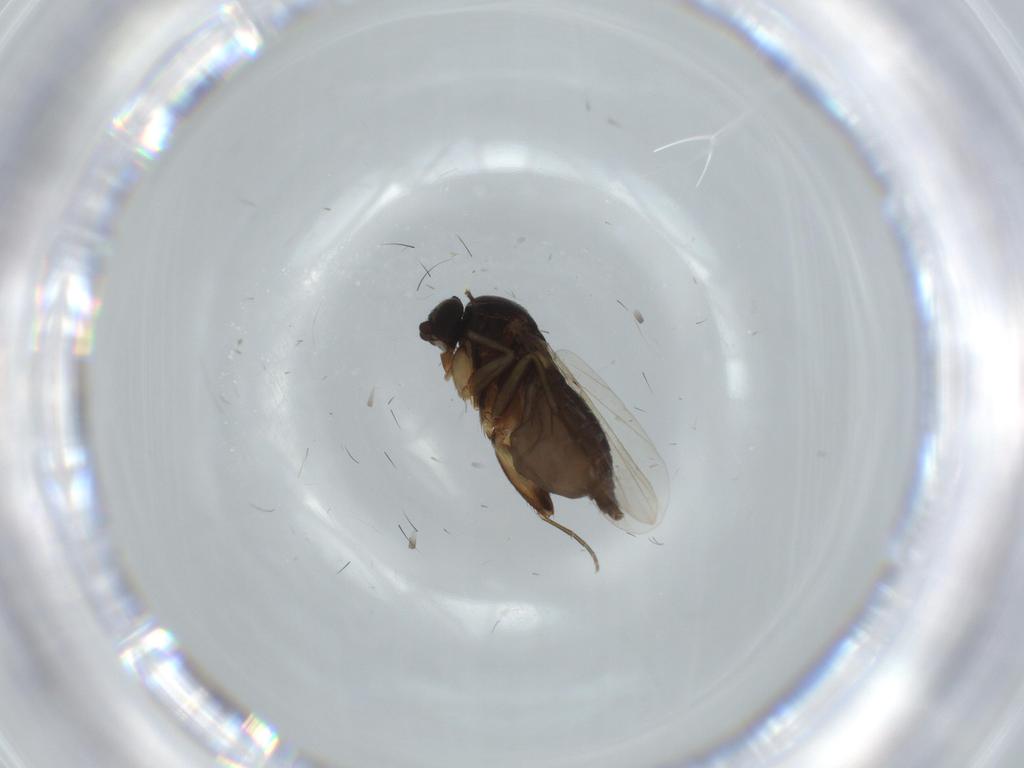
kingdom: Animalia
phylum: Arthropoda
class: Insecta
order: Diptera
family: Phoridae
